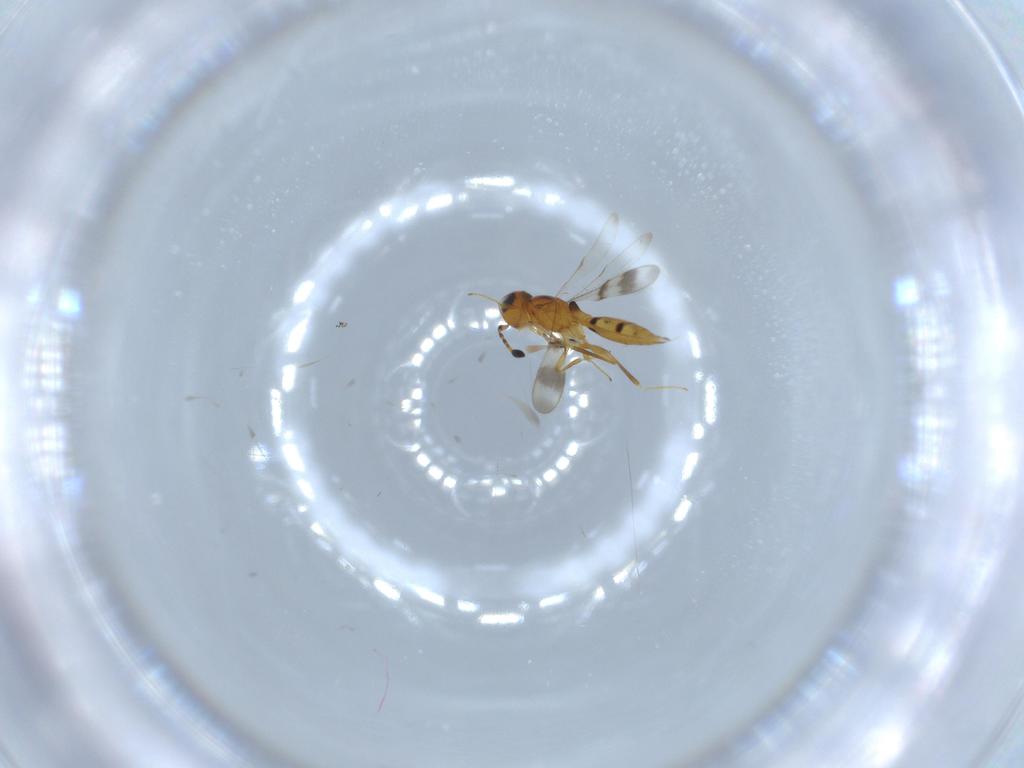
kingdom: Animalia
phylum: Arthropoda
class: Insecta
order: Hymenoptera
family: Scelionidae
